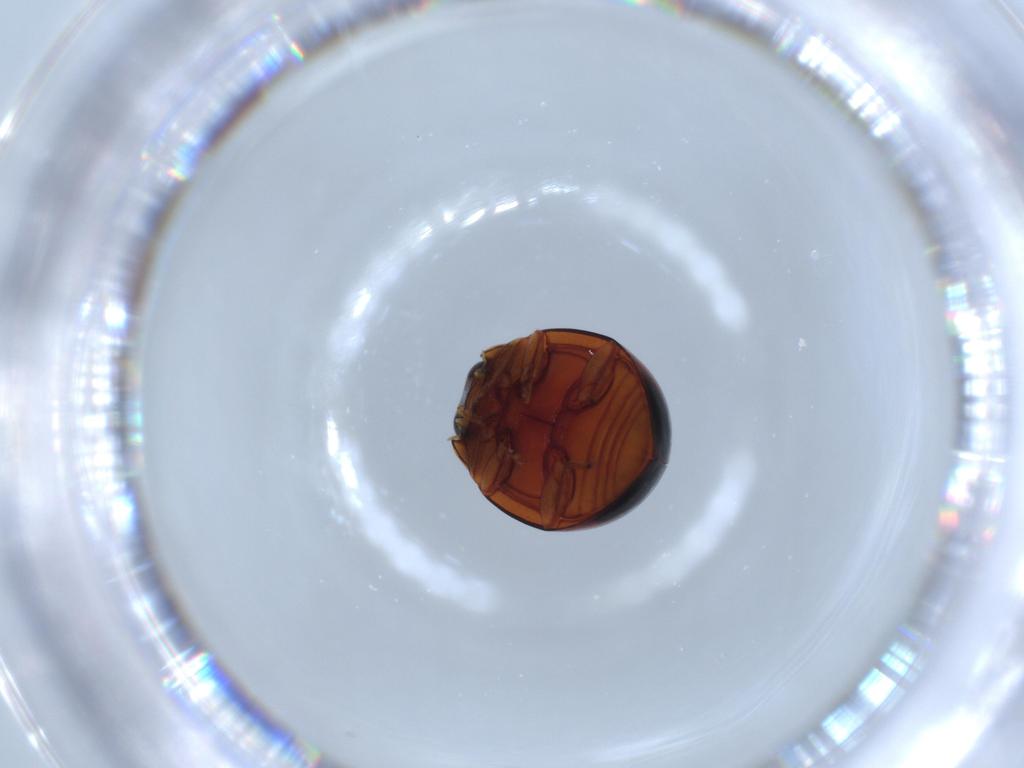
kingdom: Animalia
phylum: Arthropoda
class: Insecta
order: Coleoptera
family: Coccinellidae
